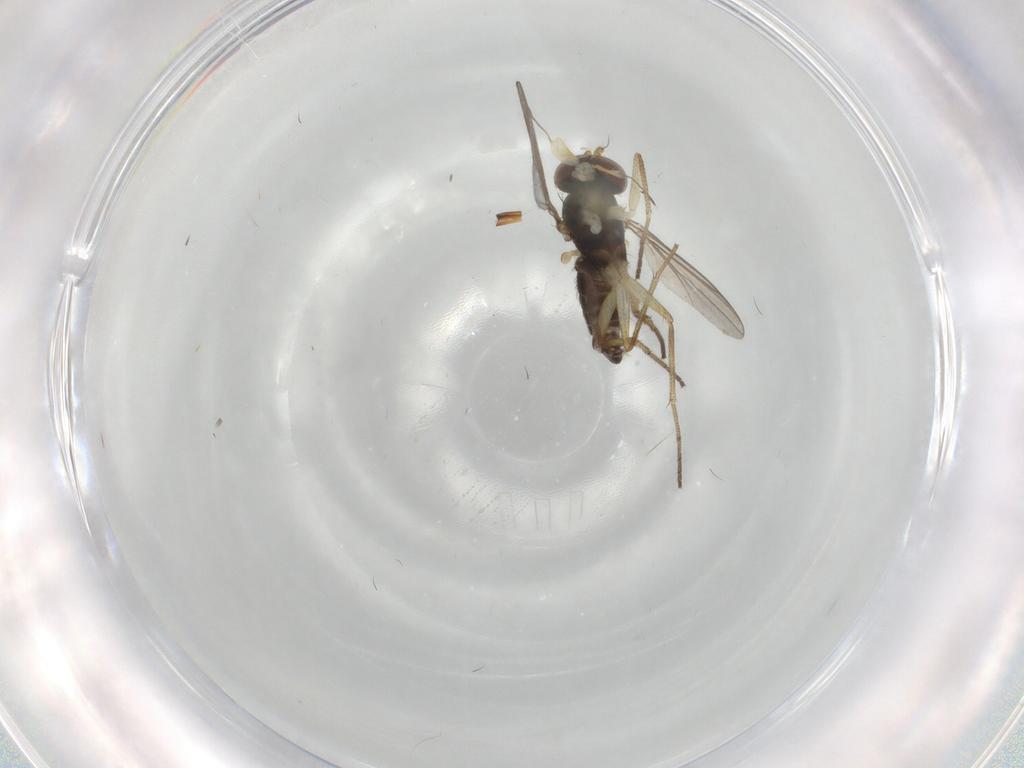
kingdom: Animalia
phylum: Arthropoda
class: Insecta
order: Diptera
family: Dolichopodidae
